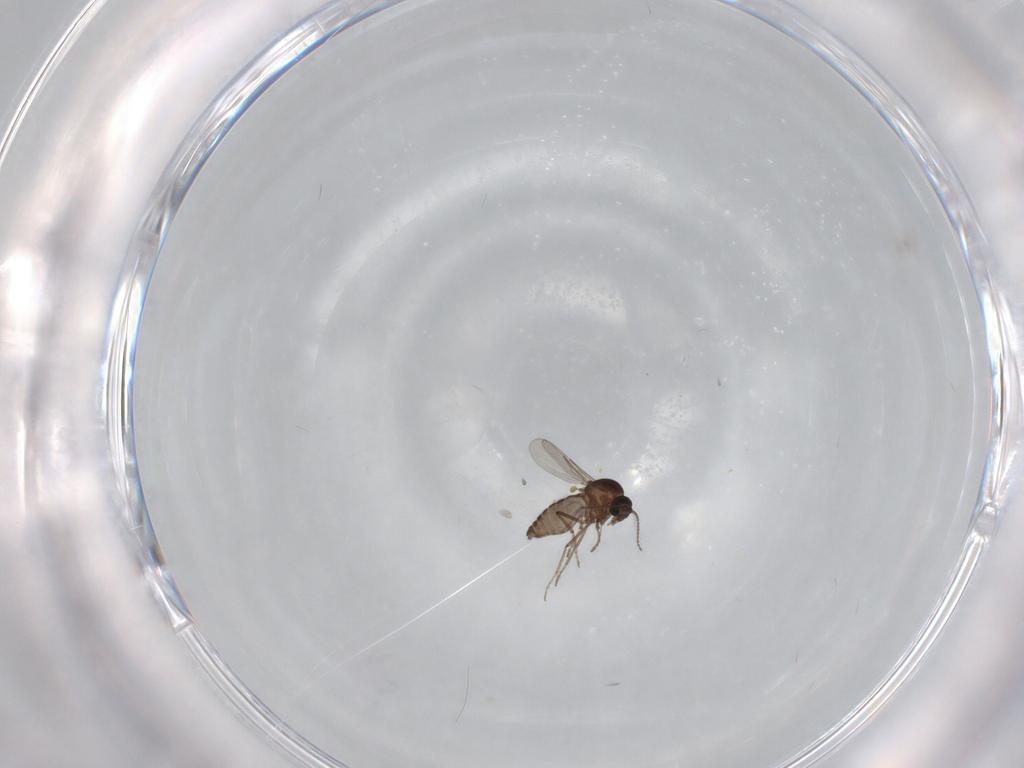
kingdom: Animalia
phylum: Arthropoda
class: Insecta
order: Diptera
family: Ceratopogonidae
